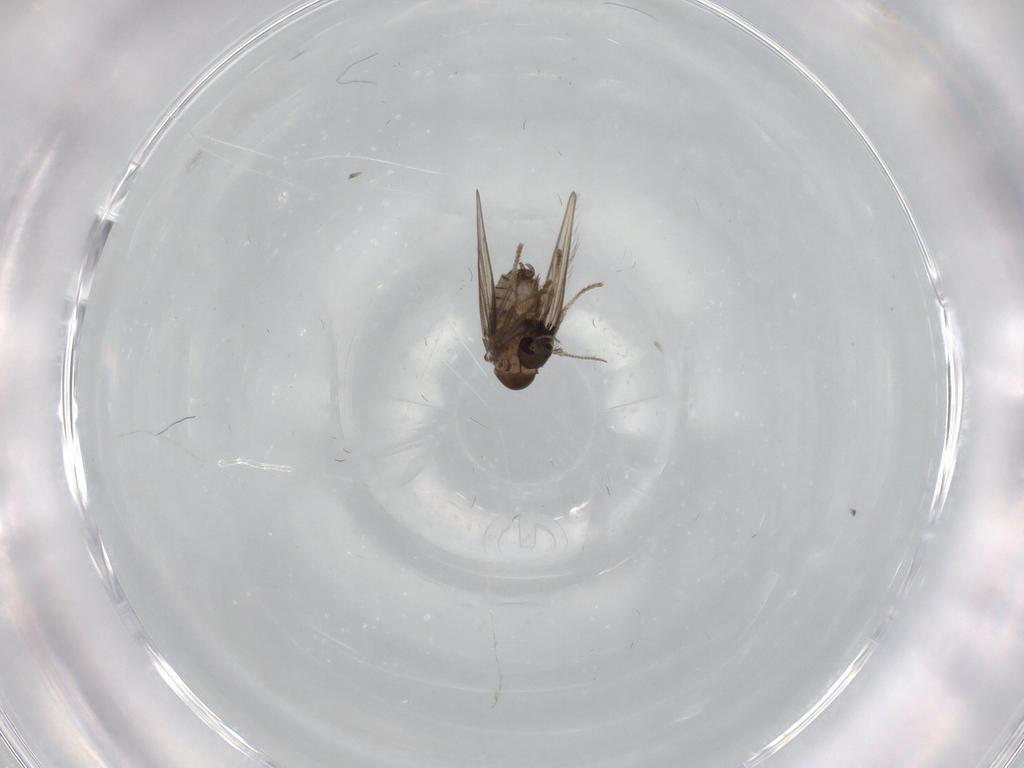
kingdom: Animalia
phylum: Arthropoda
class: Insecta
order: Diptera
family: Psychodidae
